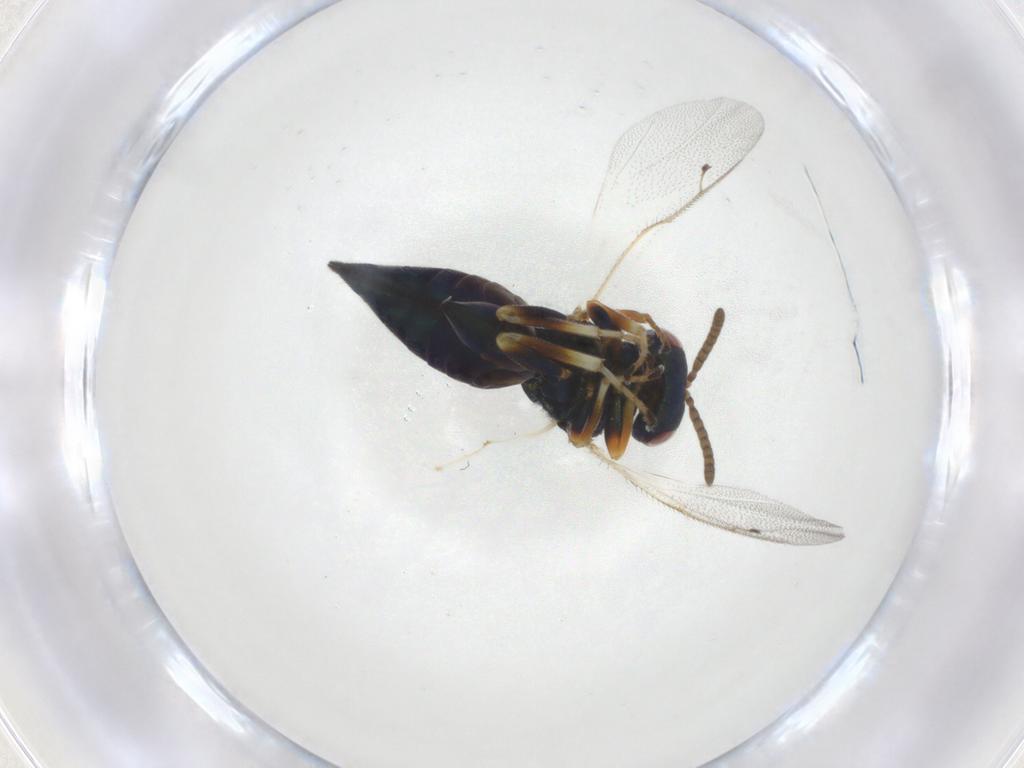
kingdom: Animalia
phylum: Arthropoda
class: Insecta
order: Hymenoptera
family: Pteromalidae
